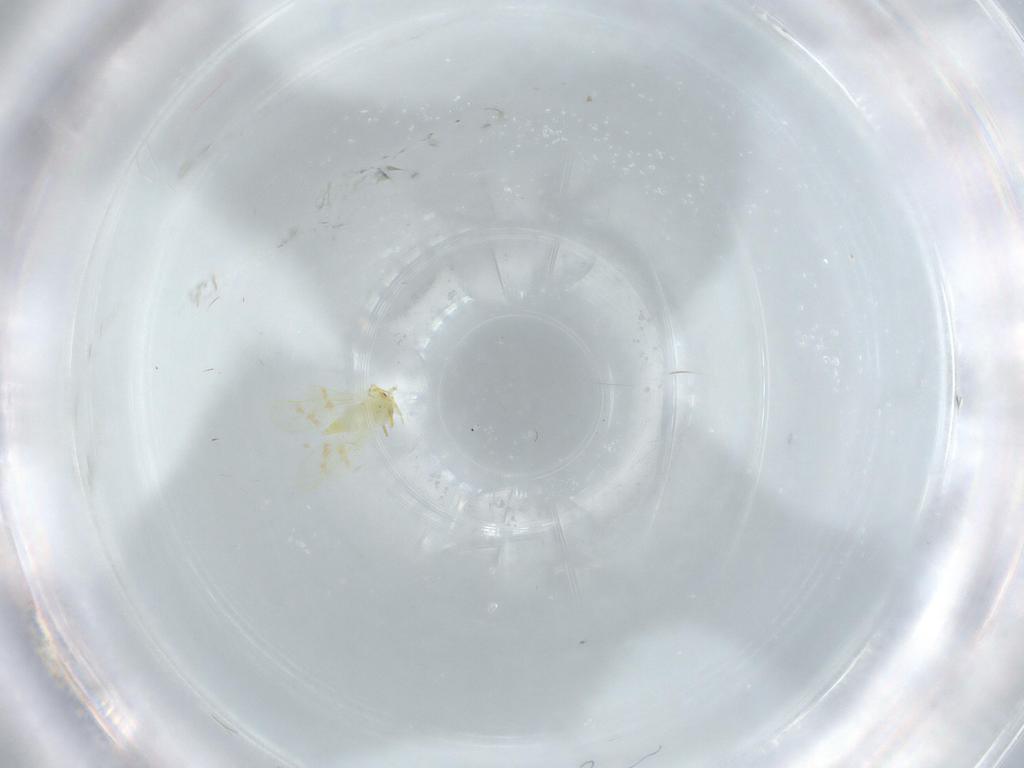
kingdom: Animalia
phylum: Arthropoda
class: Insecta
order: Hemiptera
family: Aleyrodidae
